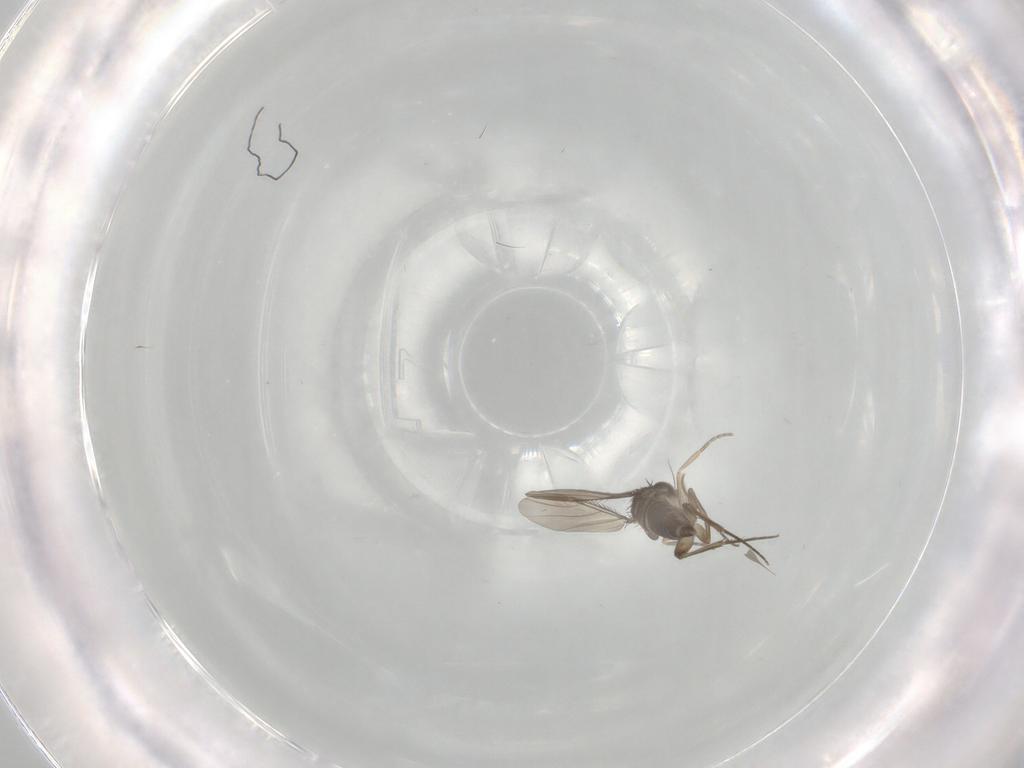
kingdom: Animalia
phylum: Arthropoda
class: Insecta
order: Diptera
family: Phoridae
